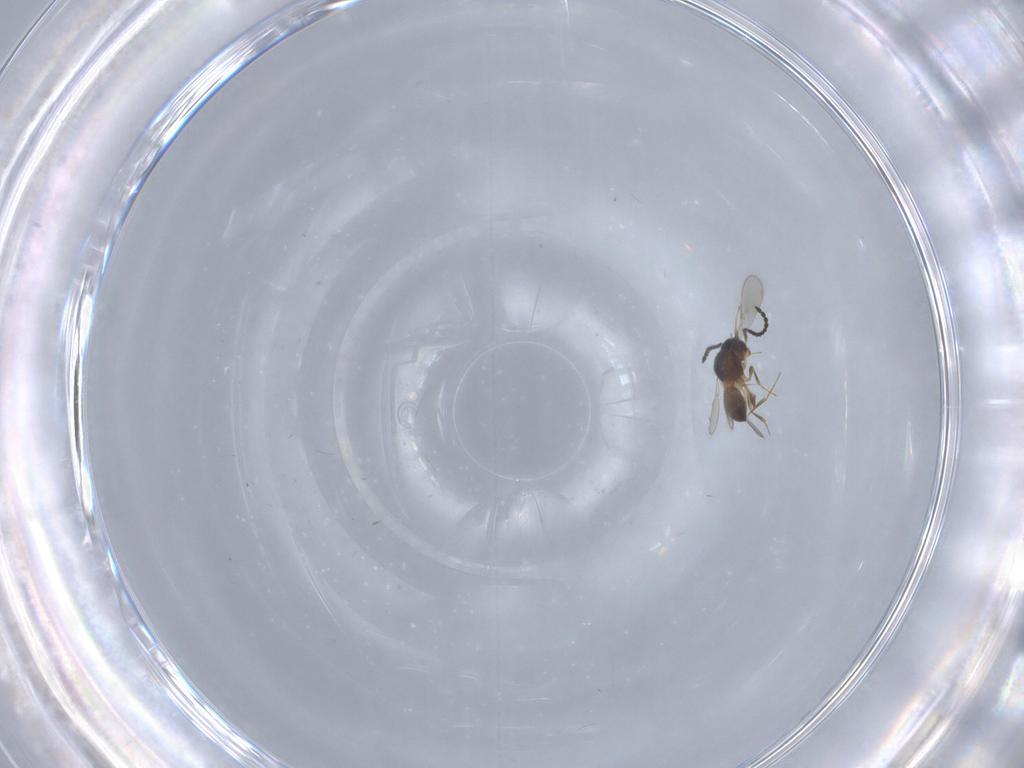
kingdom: Animalia
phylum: Arthropoda
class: Insecta
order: Hymenoptera
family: Scelionidae
